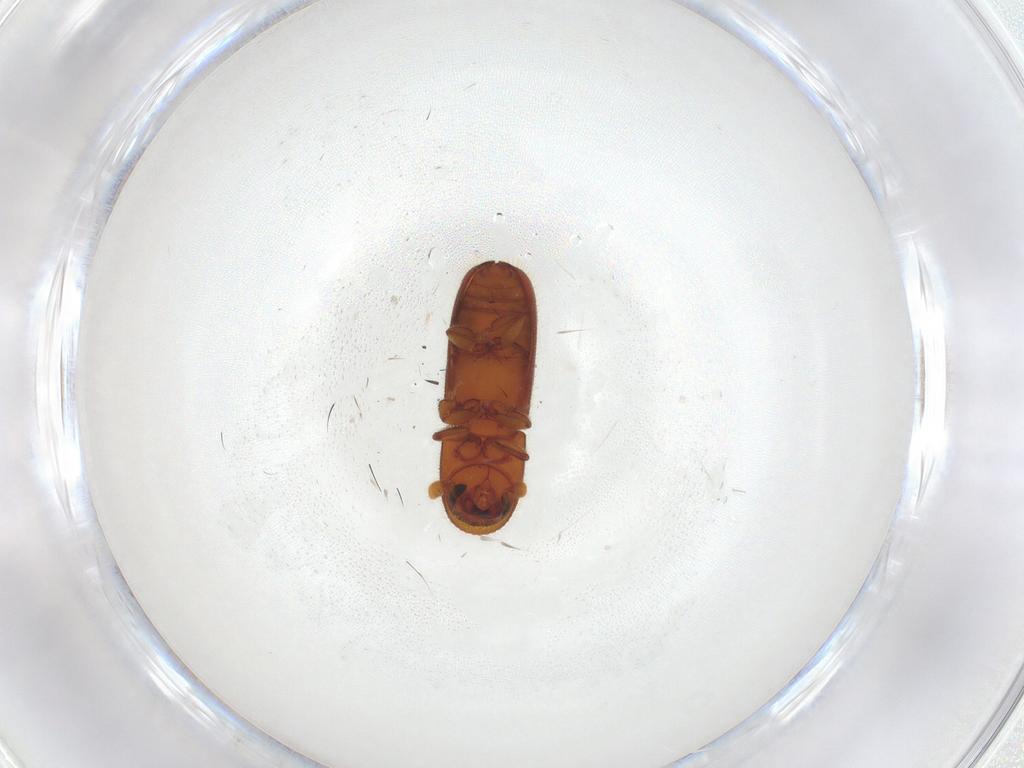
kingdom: Animalia
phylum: Arthropoda
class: Insecta
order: Coleoptera
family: Curculionidae
